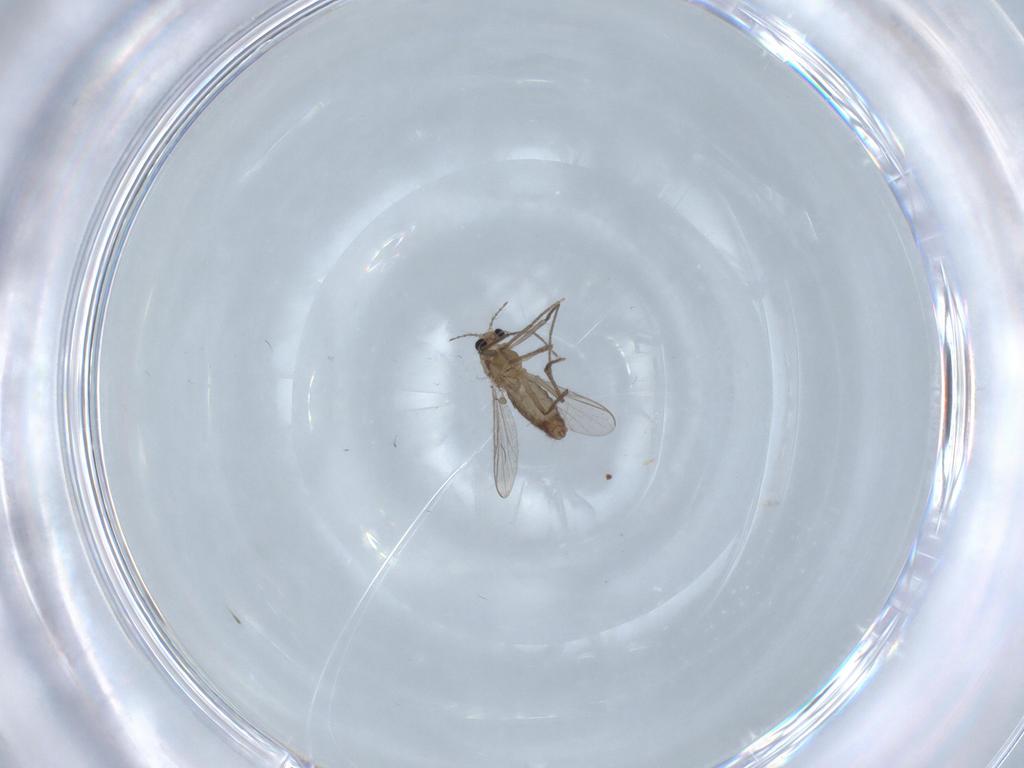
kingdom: Animalia
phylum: Arthropoda
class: Insecta
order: Diptera
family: Chironomidae
